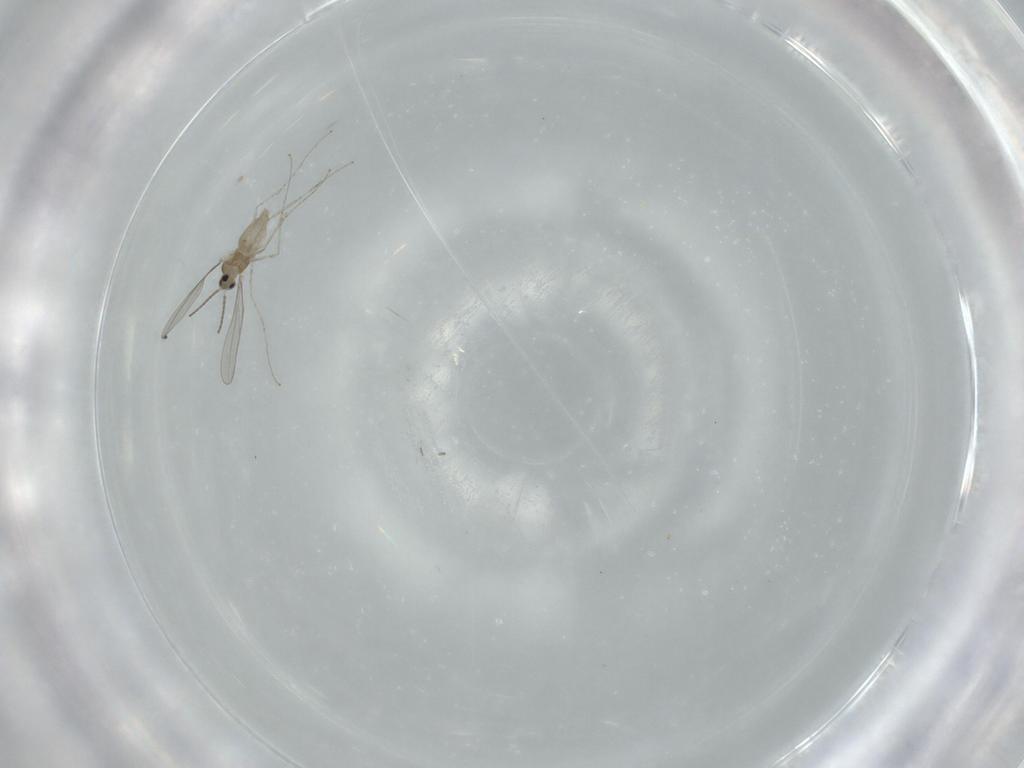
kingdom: Animalia
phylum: Arthropoda
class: Insecta
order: Diptera
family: Cecidomyiidae
